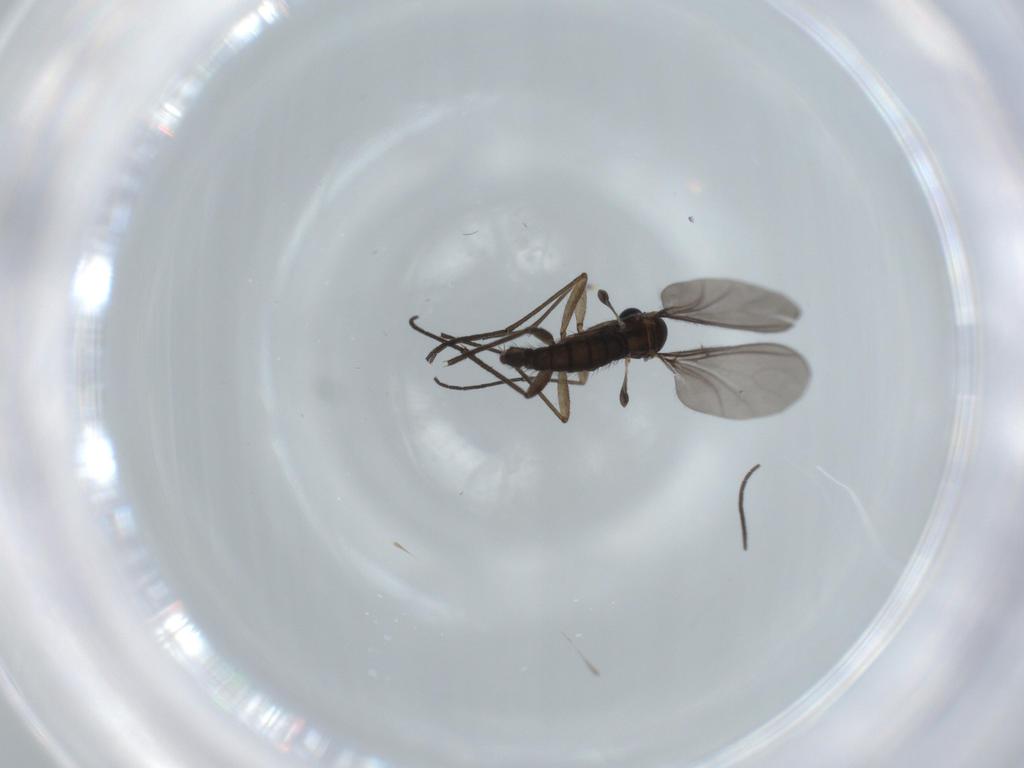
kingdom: Animalia
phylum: Arthropoda
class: Insecta
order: Diptera
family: Sciaridae
